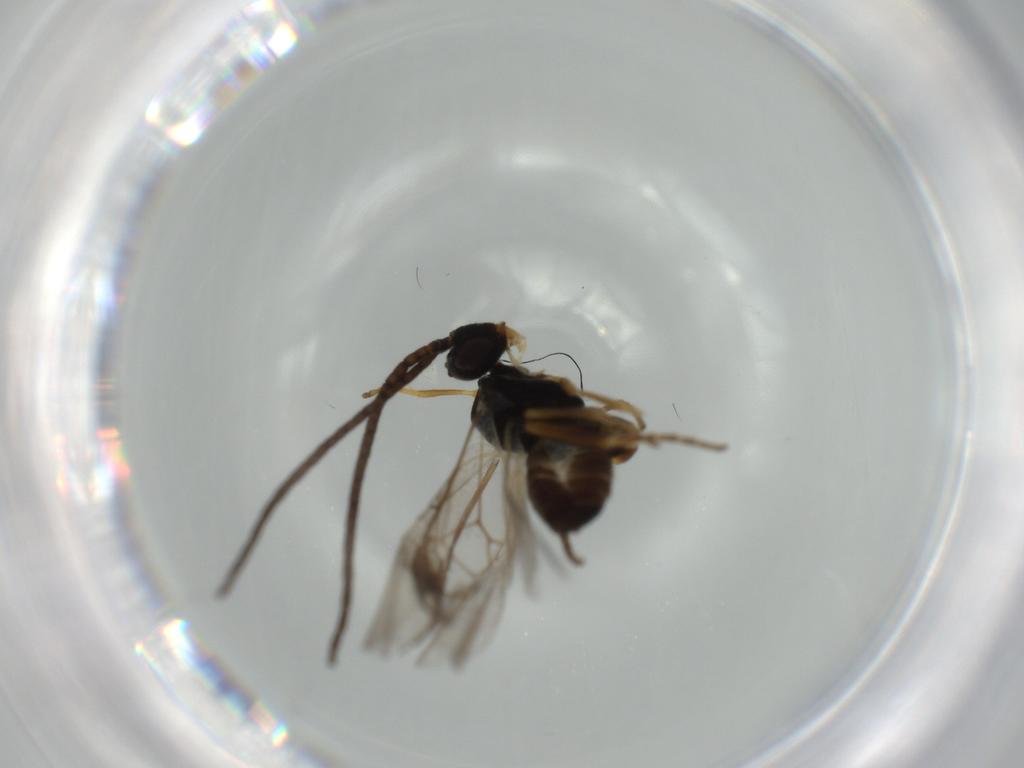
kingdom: Animalia
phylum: Arthropoda
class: Insecta
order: Hymenoptera
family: Braconidae
